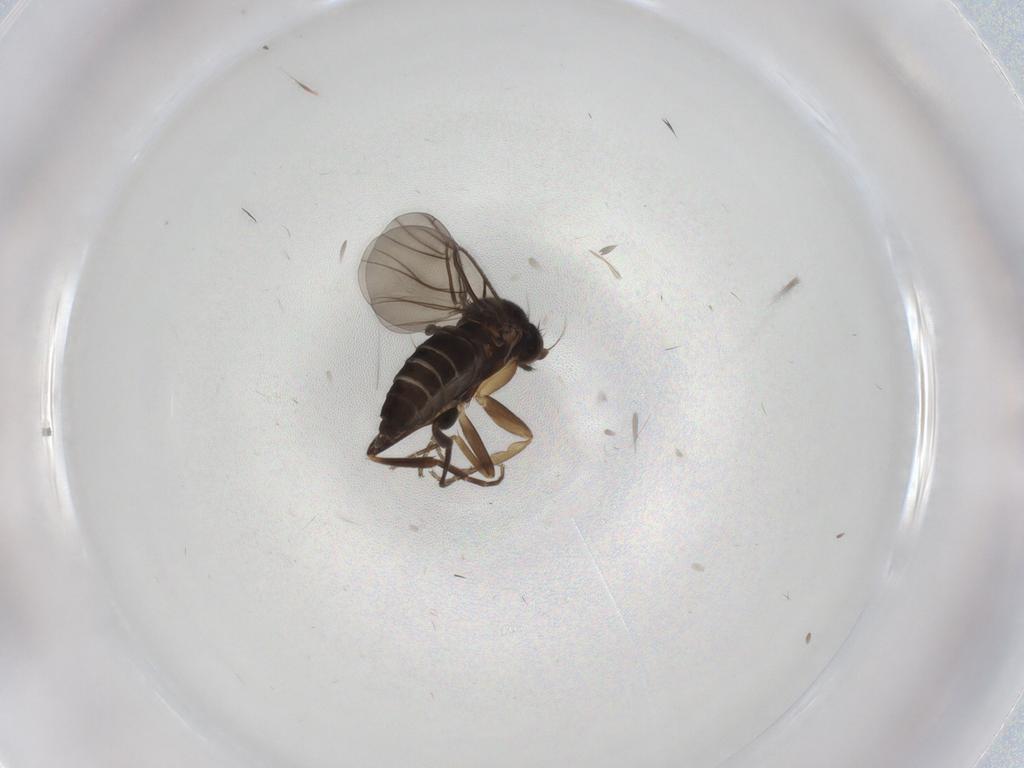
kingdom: Animalia
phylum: Arthropoda
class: Insecta
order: Diptera
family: Phoridae
